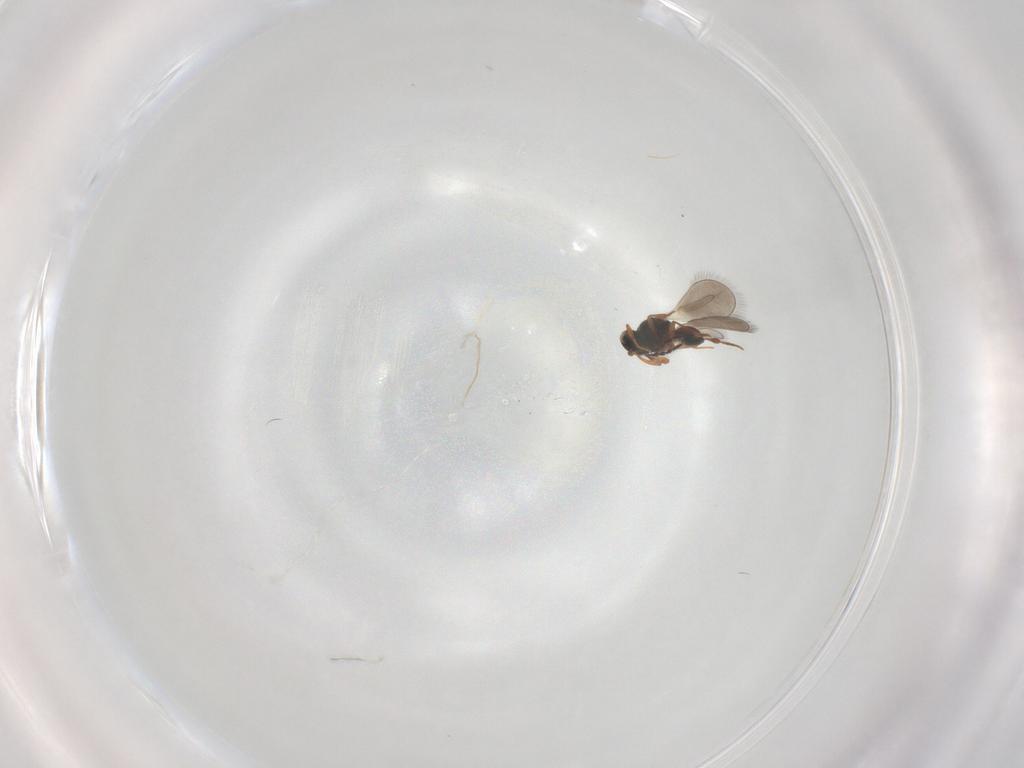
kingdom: Animalia
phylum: Arthropoda
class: Insecta
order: Hymenoptera
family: Platygastridae
